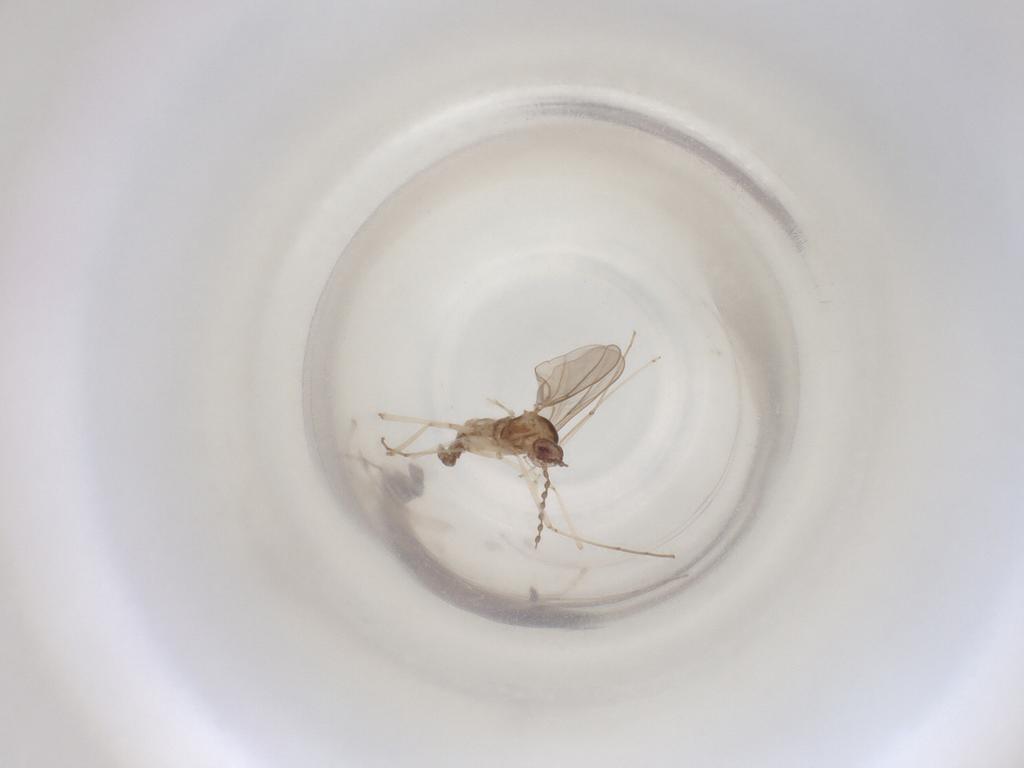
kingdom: Animalia
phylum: Arthropoda
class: Insecta
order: Diptera
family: Cecidomyiidae
